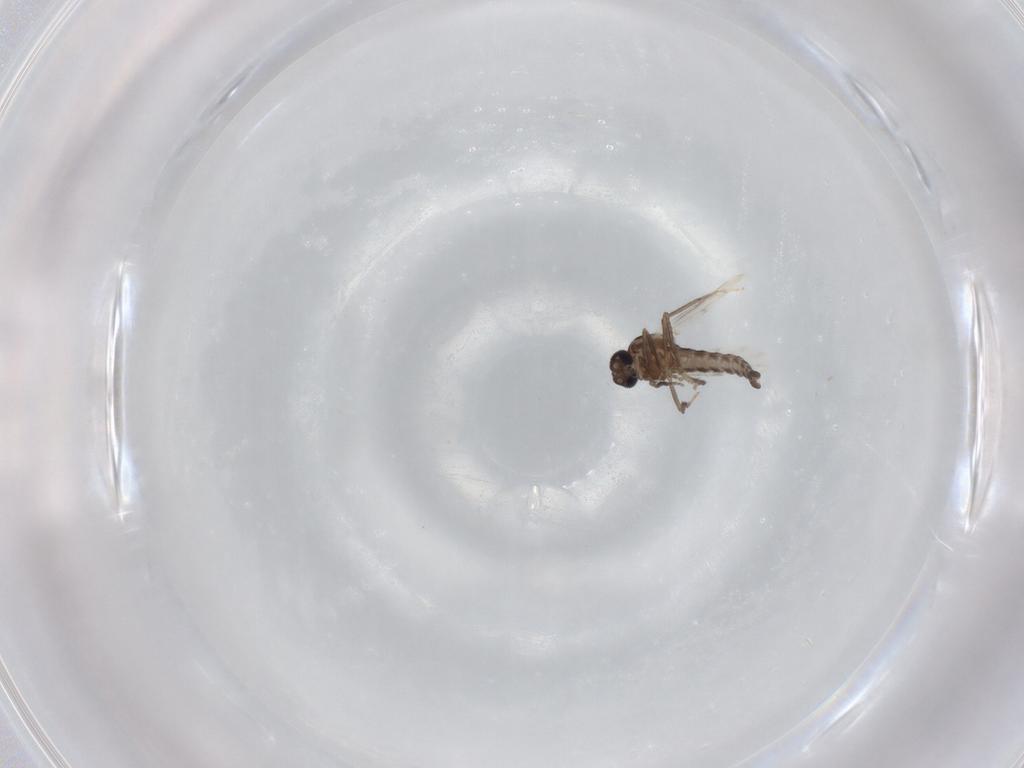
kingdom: Animalia
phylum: Arthropoda
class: Insecta
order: Diptera
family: Ceratopogonidae
